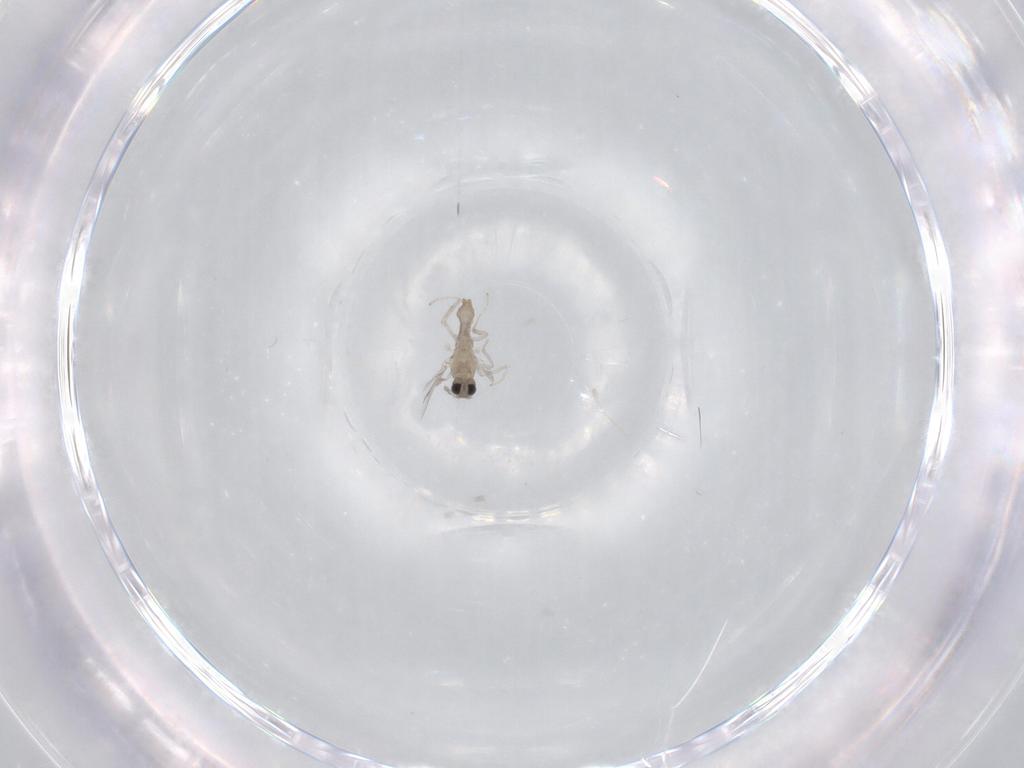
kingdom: Animalia
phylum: Arthropoda
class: Insecta
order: Diptera
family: Cecidomyiidae
